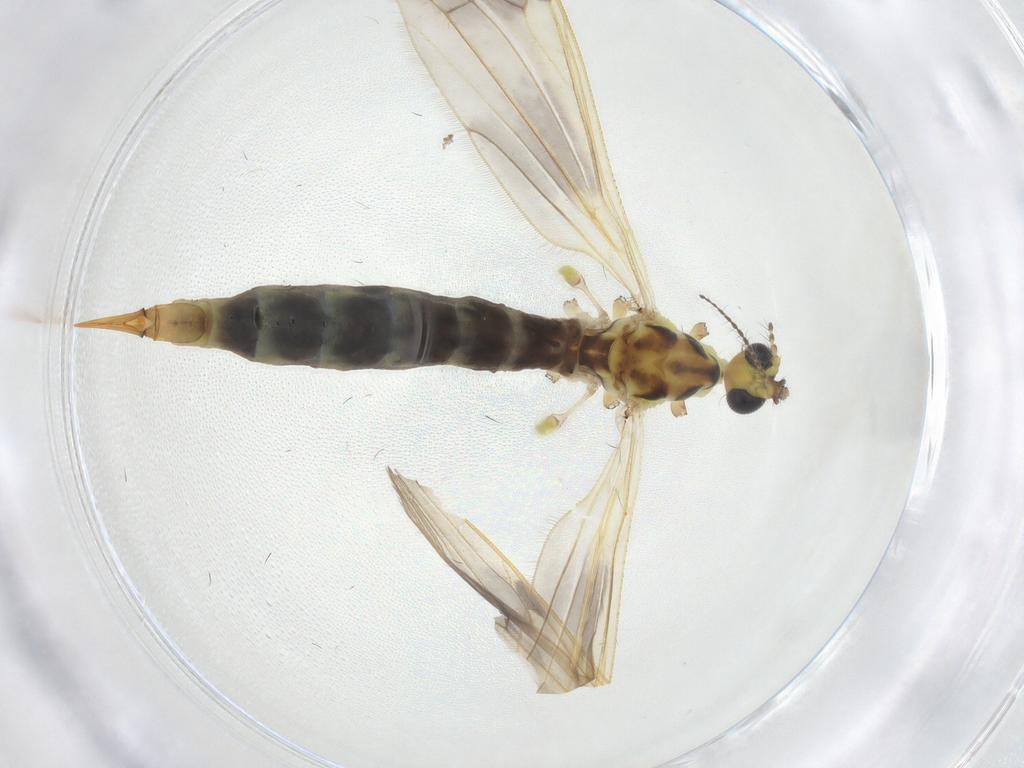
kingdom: Animalia
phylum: Arthropoda
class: Insecta
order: Diptera
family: Limoniidae
